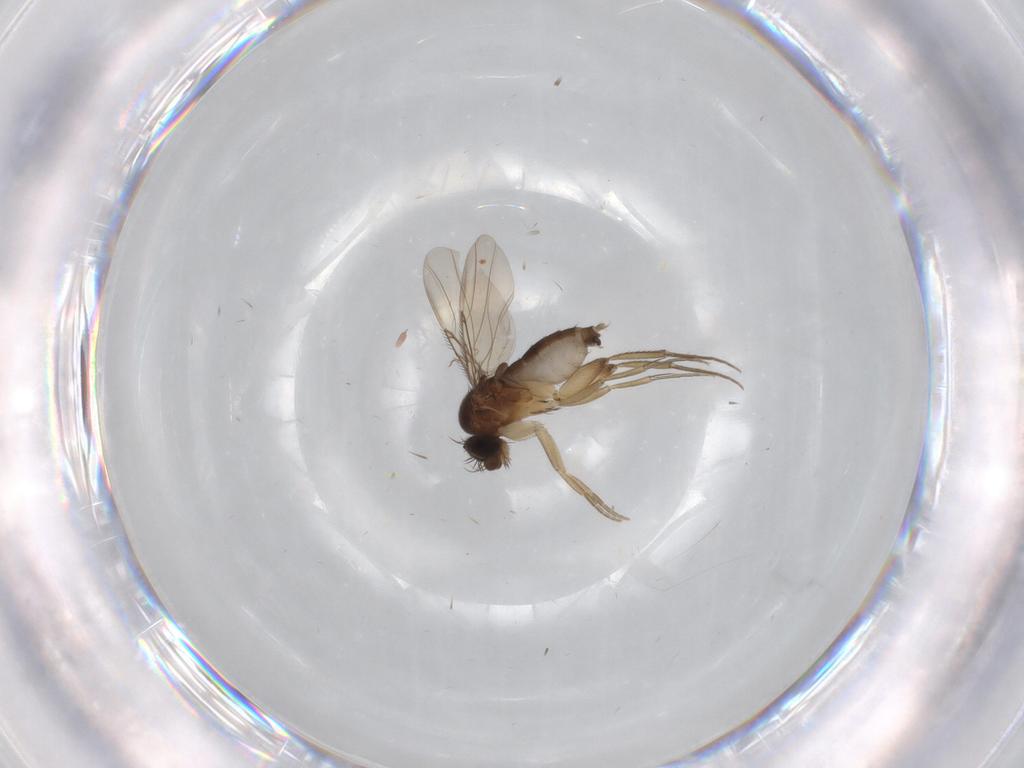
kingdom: Animalia
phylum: Arthropoda
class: Insecta
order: Diptera
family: Phoridae
